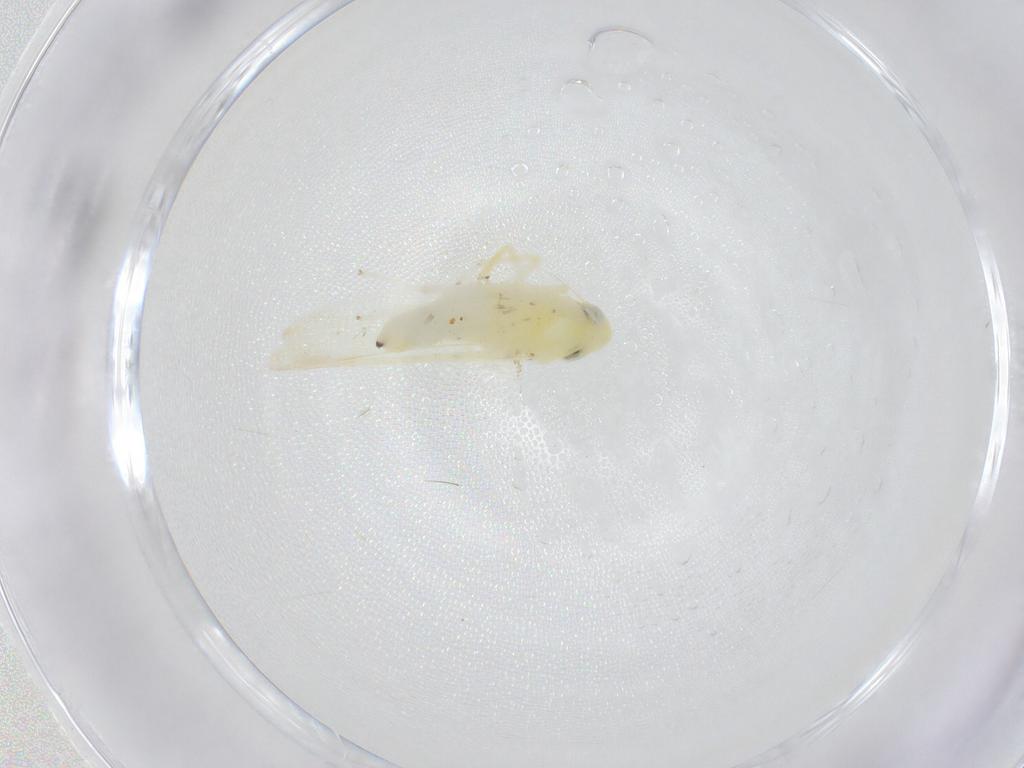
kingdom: Animalia
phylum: Arthropoda
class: Insecta
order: Hemiptera
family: Cicadellidae
